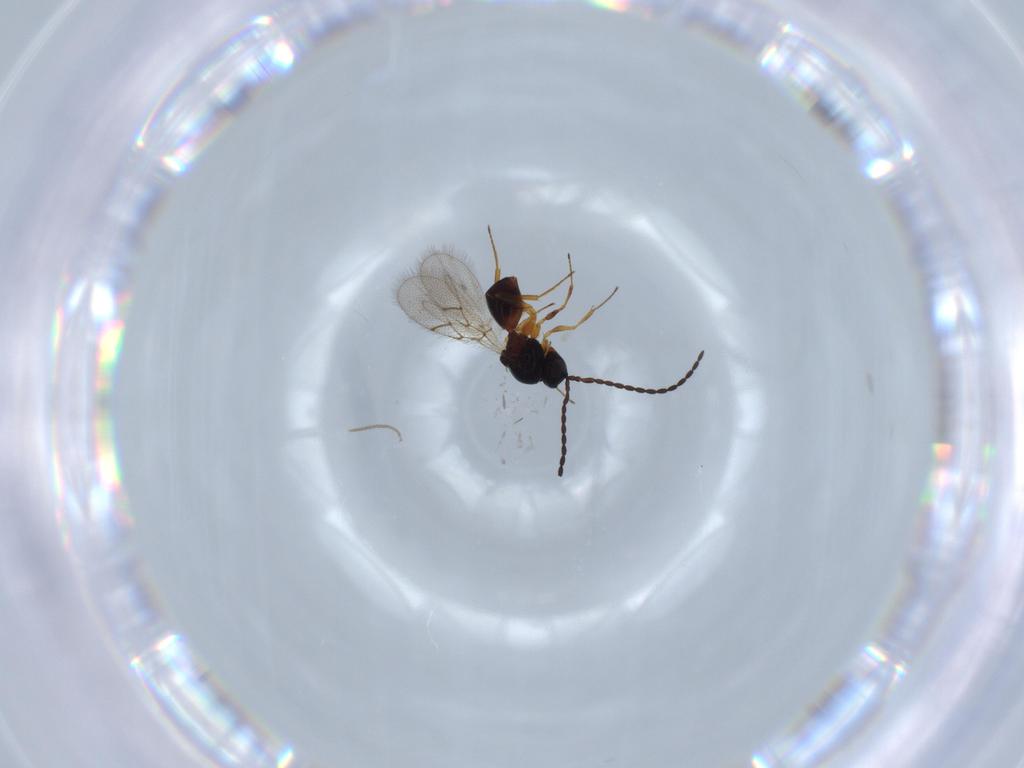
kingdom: Animalia
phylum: Arthropoda
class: Insecta
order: Hymenoptera
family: Figitidae
